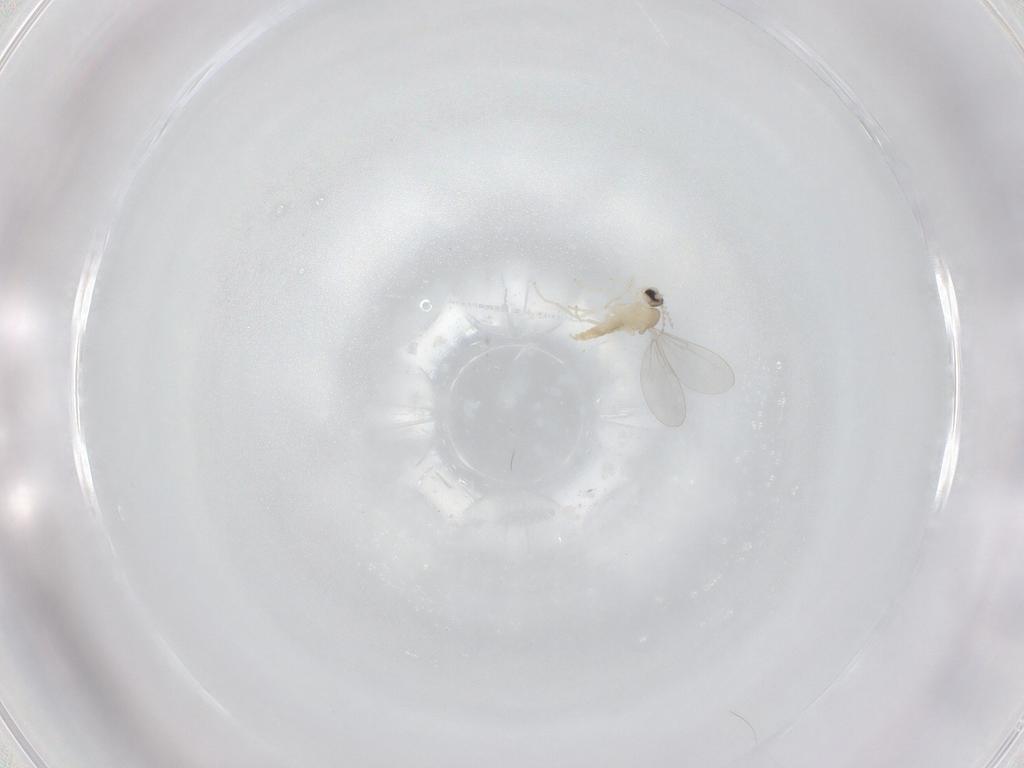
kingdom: Animalia
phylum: Arthropoda
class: Insecta
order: Diptera
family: Cecidomyiidae
